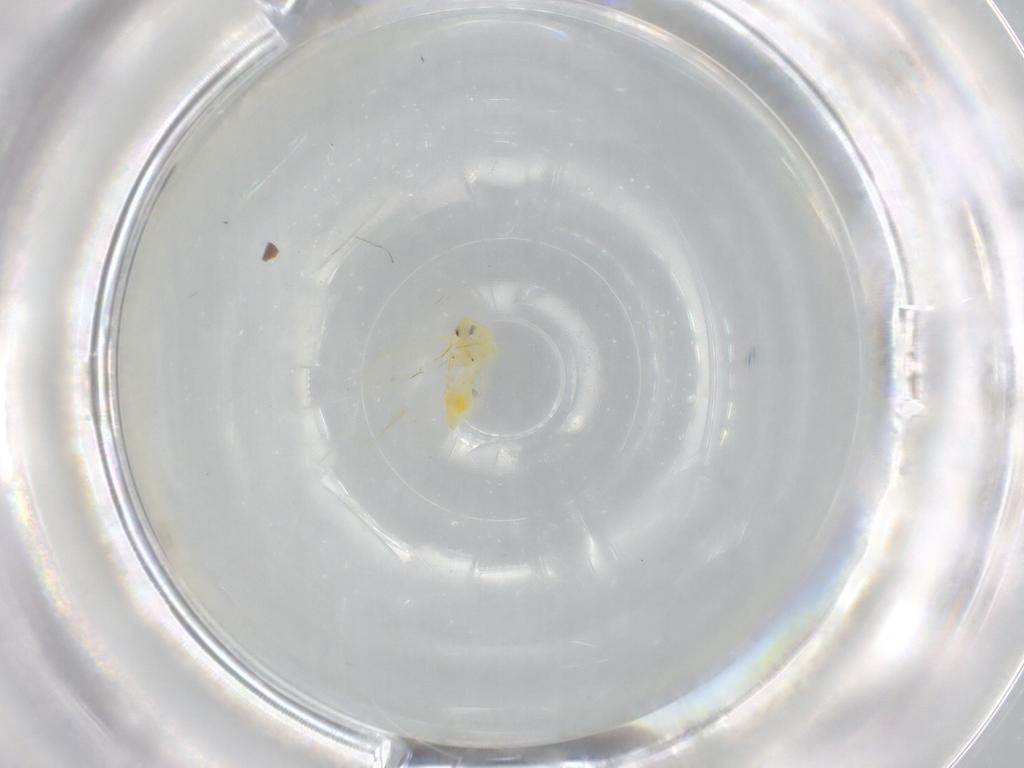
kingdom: Animalia
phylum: Arthropoda
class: Insecta
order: Hemiptera
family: Aleyrodidae
